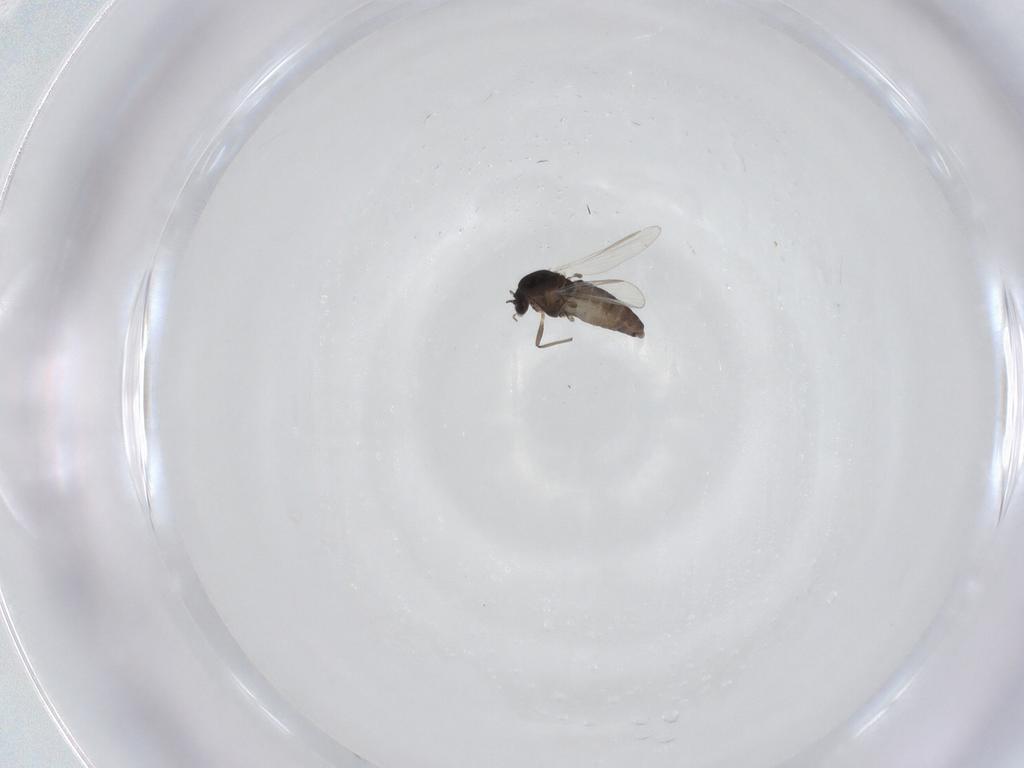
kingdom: Animalia
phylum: Arthropoda
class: Insecta
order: Diptera
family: Chironomidae
